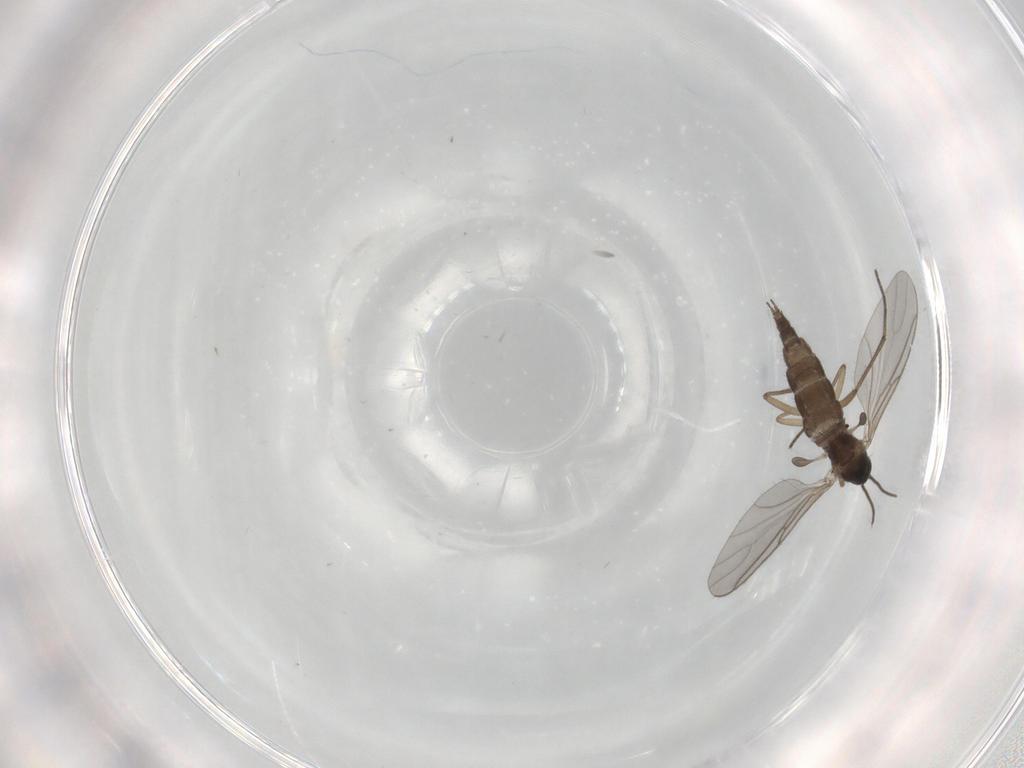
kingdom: Animalia
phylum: Arthropoda
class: Insecta
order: Diptera
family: Sciaridae
